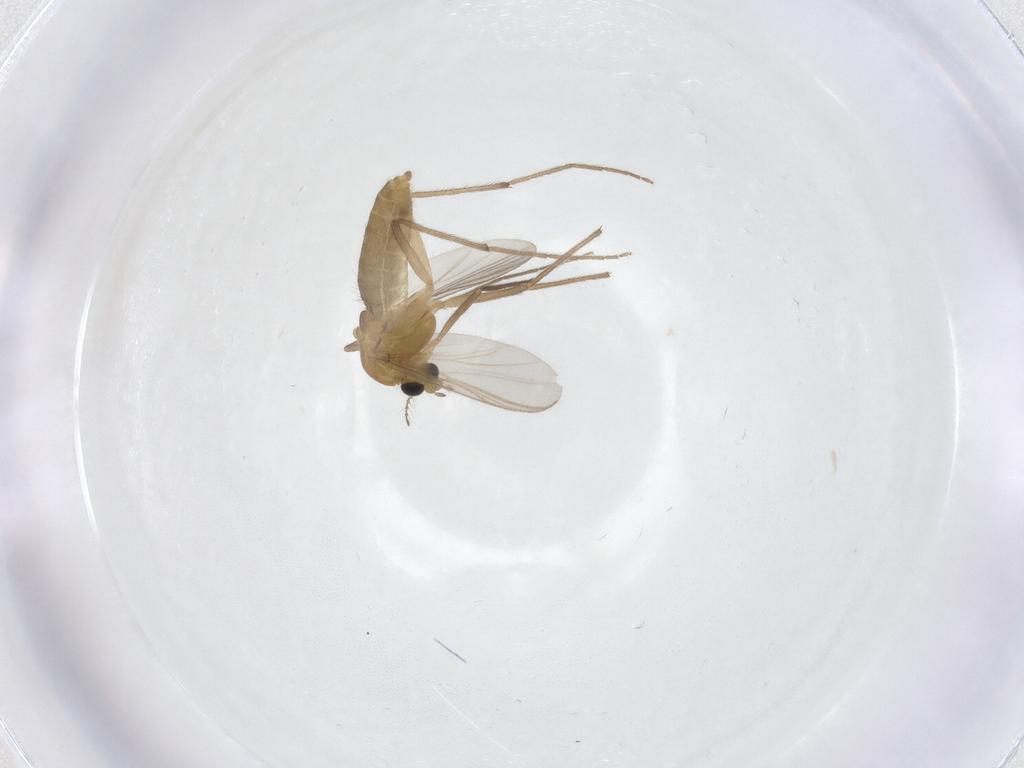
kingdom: Animalia
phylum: Arthropoda
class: Insecta
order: Diptera
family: Chironomidae
